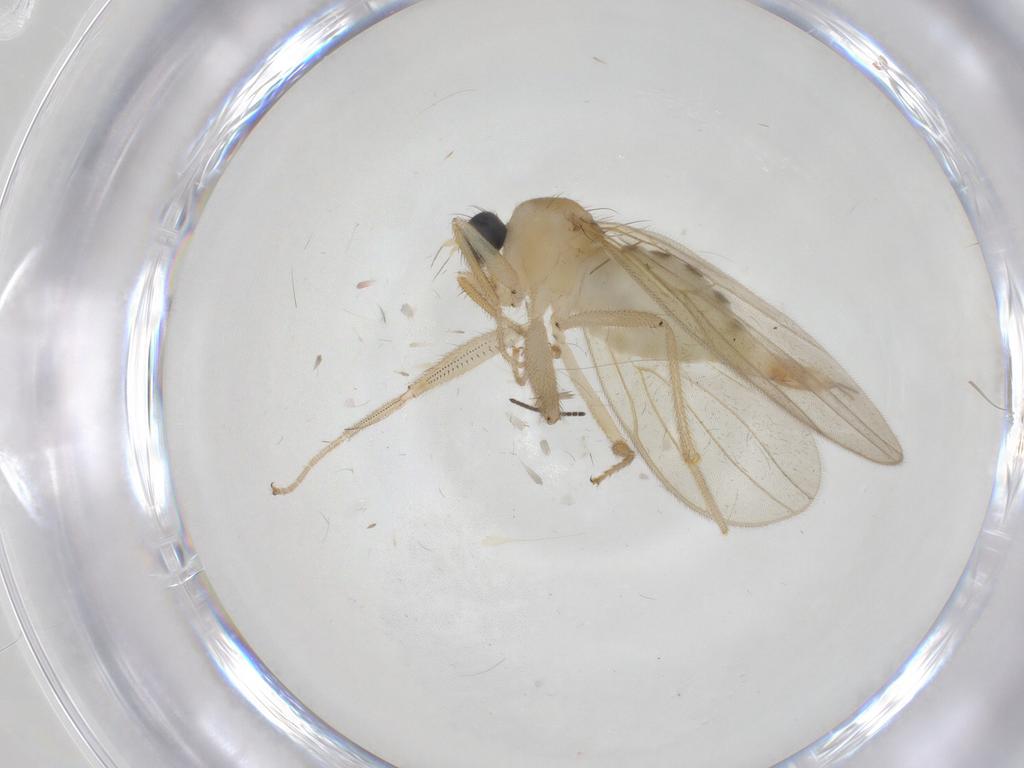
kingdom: Animalia
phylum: Arthropoda
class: Insecta
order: Diptera
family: Hybotidae
